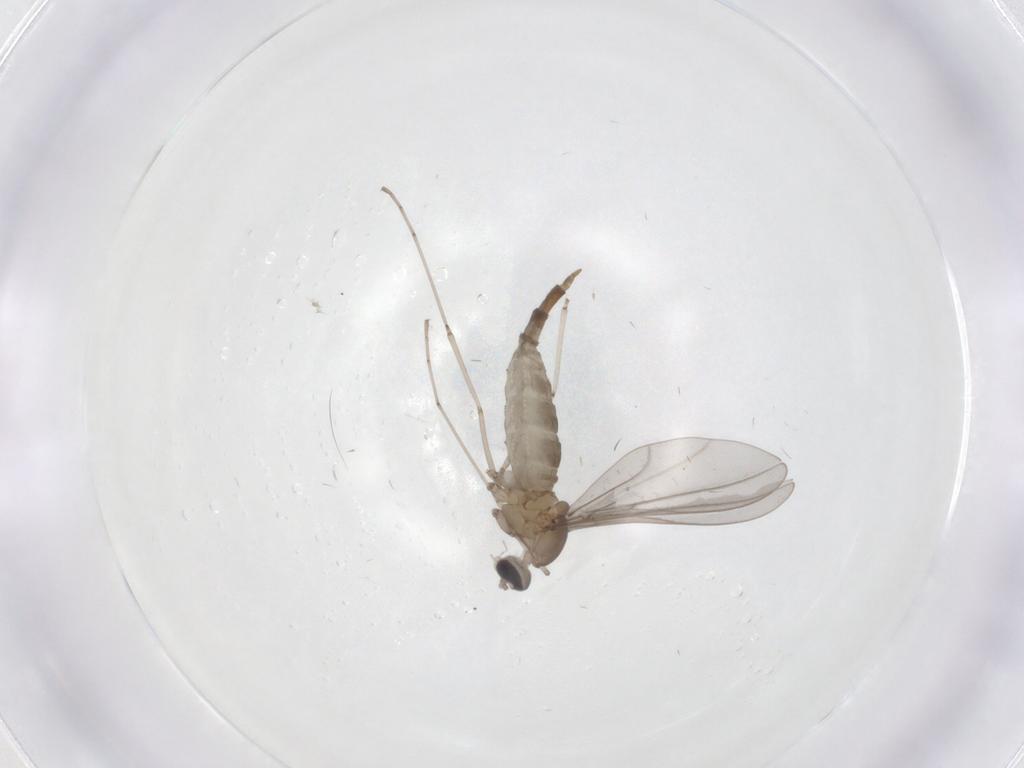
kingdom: Animalia
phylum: Arthropoda
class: Insecta
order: Diptera
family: Cecidomyiidae
